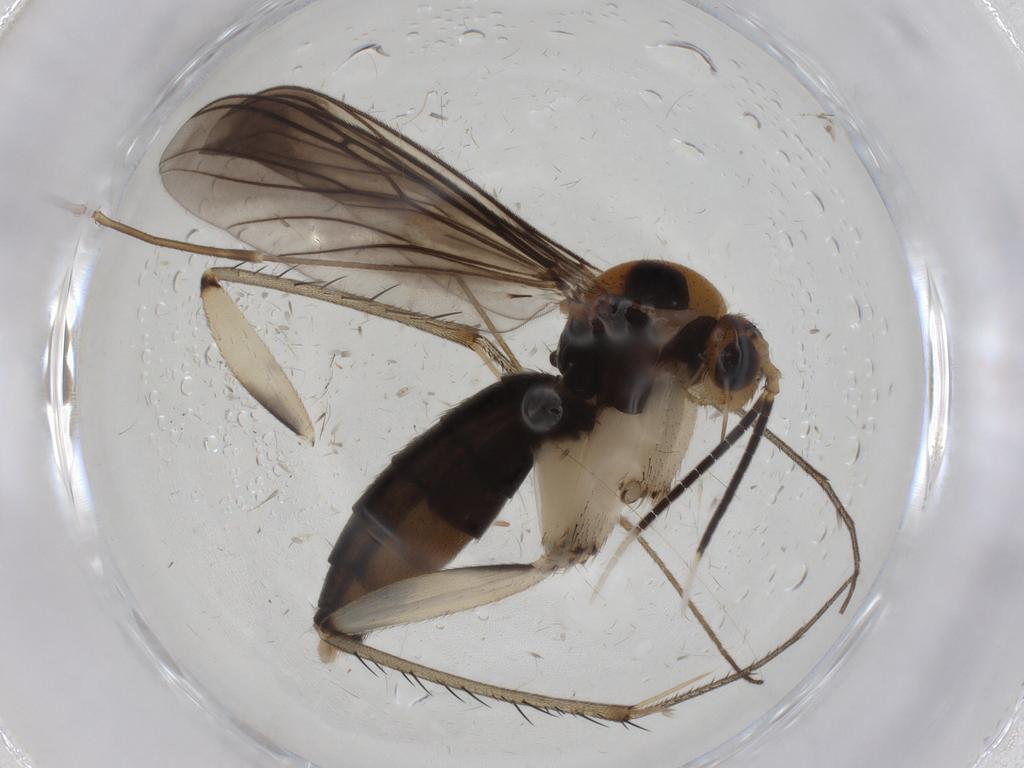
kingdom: Animalia
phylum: Arthropoda
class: Insecta
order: Diptera
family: Mycetophilidae
